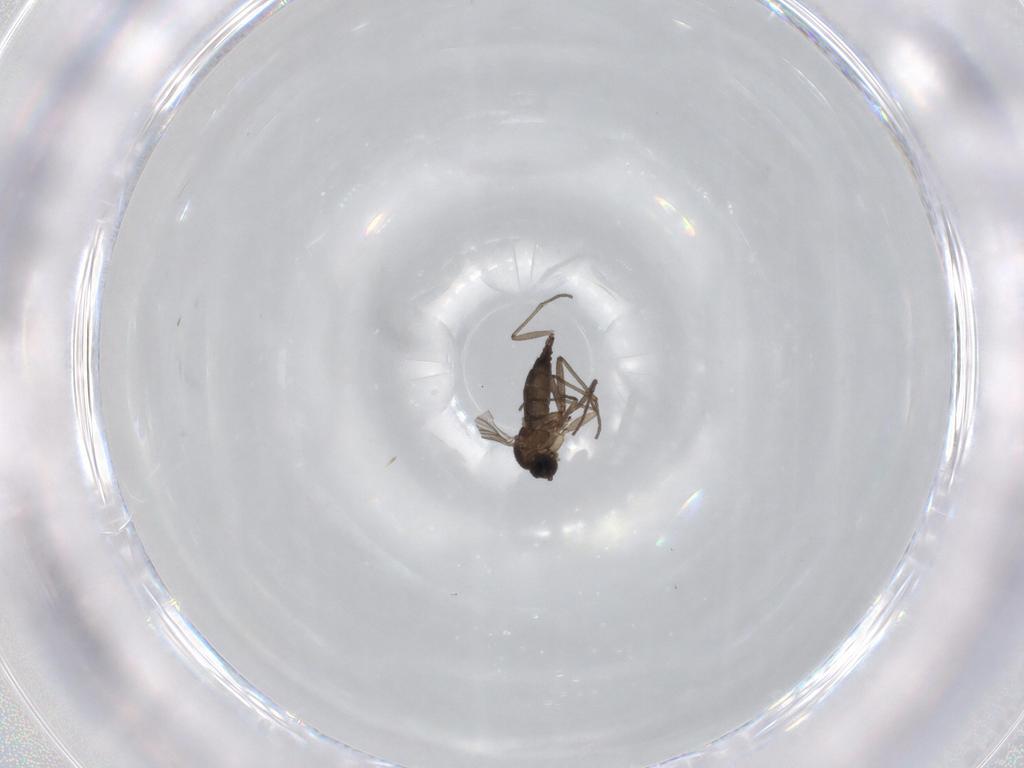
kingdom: Animalia
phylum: Arthropoda
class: Insecta
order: Diptera
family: Sciaridae
